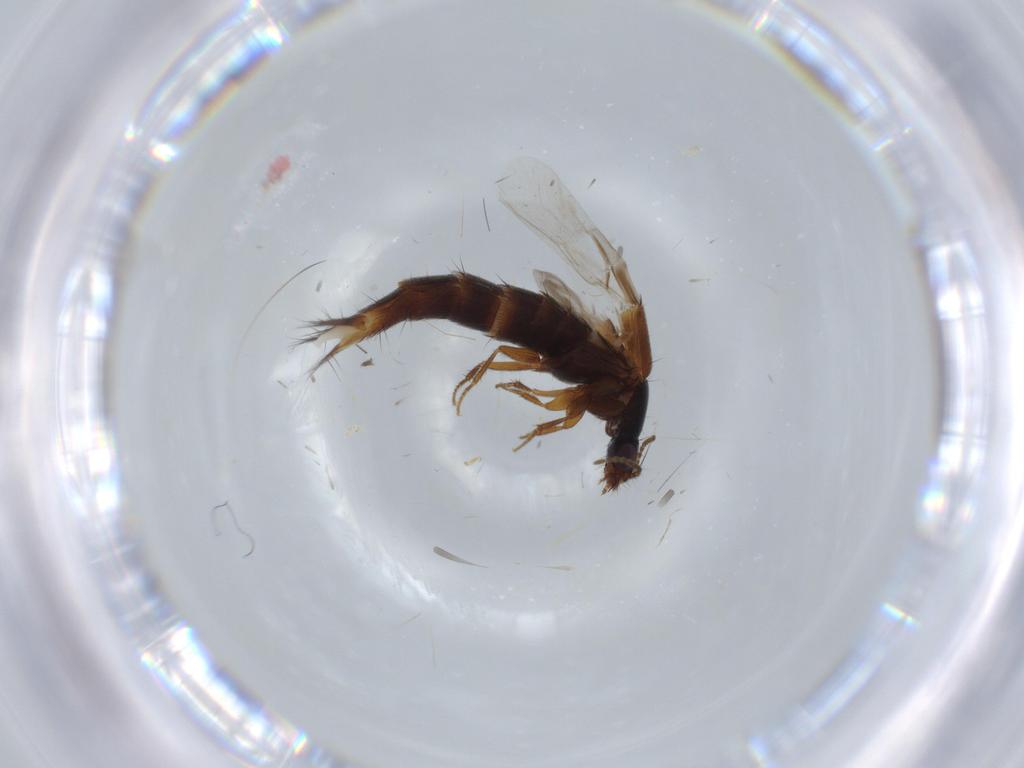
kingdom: Animalia
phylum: Arthropoda
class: Insecta
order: Coleoptera
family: Staphylinidae
